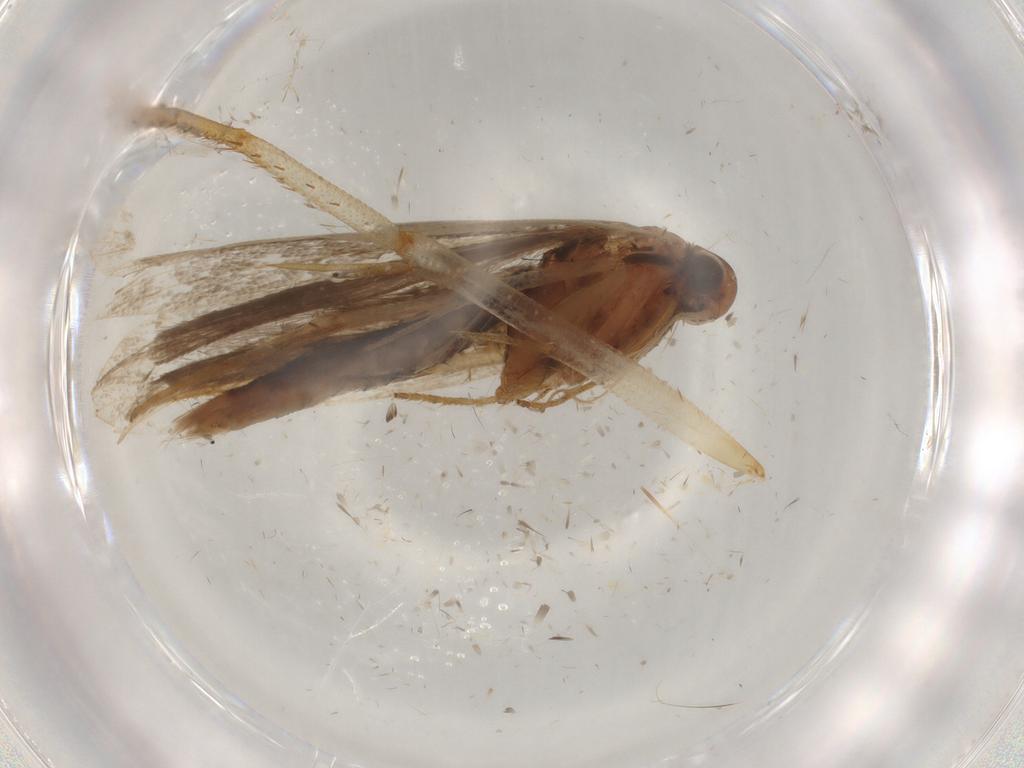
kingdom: Animalia
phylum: Arthropoda
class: Insecta
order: Lepidoptera
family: Gelechiidae
